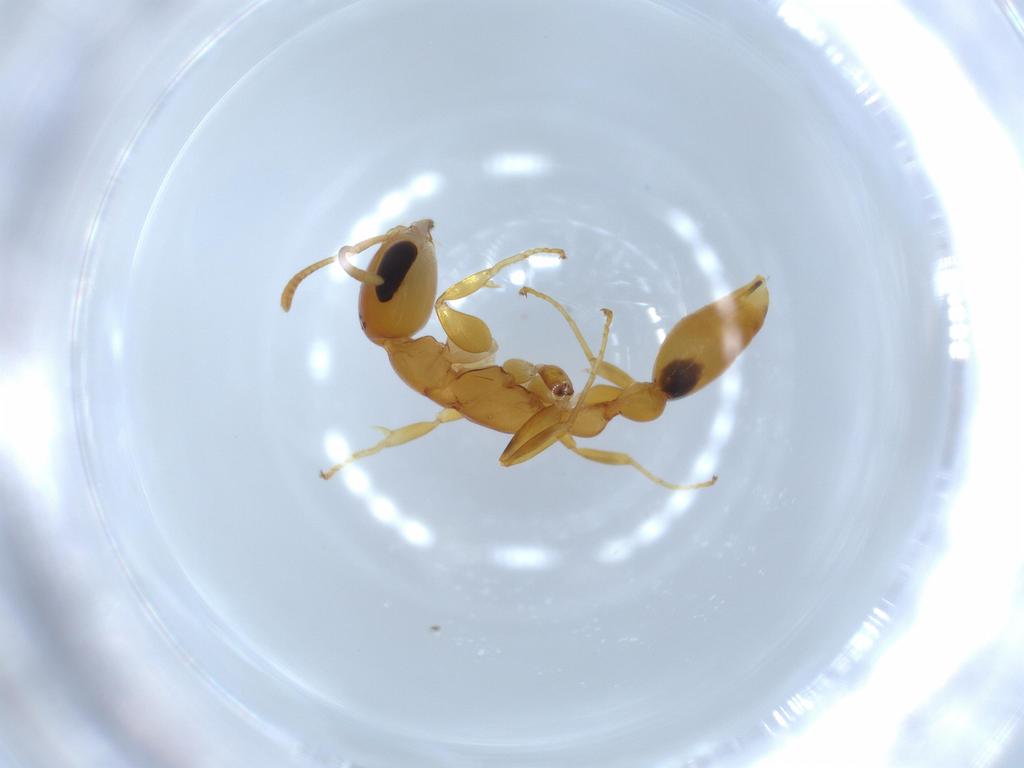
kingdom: Animalia
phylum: Arthropoda
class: Insecta
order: Hymenoptera
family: Formicidae
